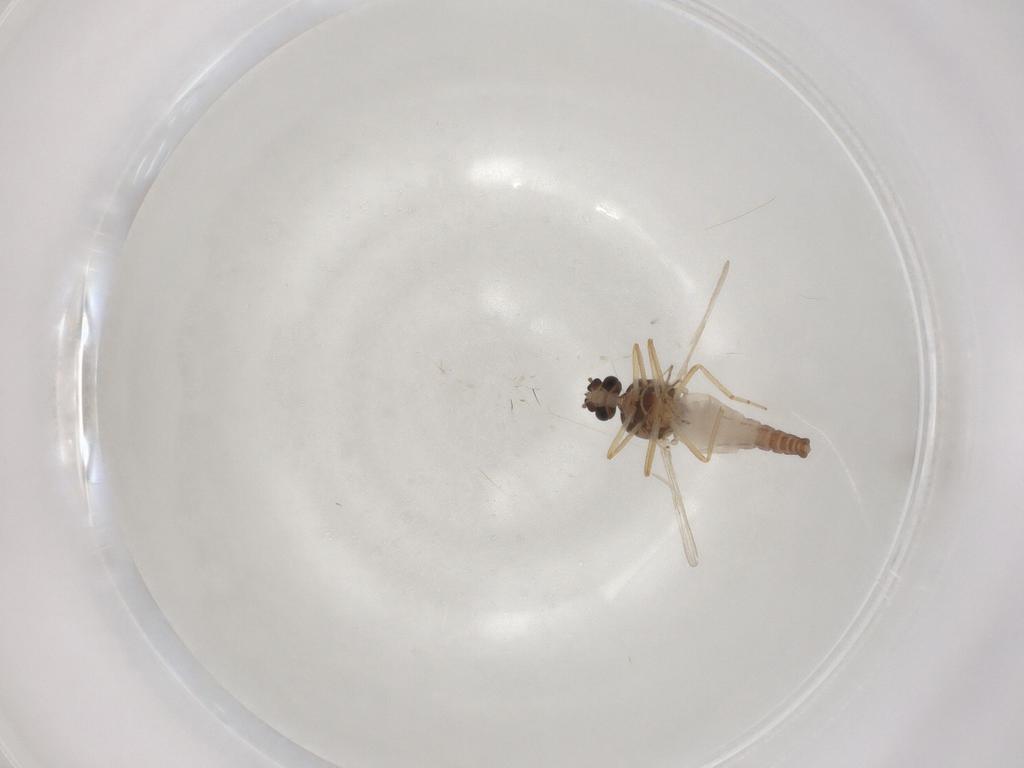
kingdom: Animalia
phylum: Arthropoda
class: Insecta
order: Diptera
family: Ceratopogonidae
